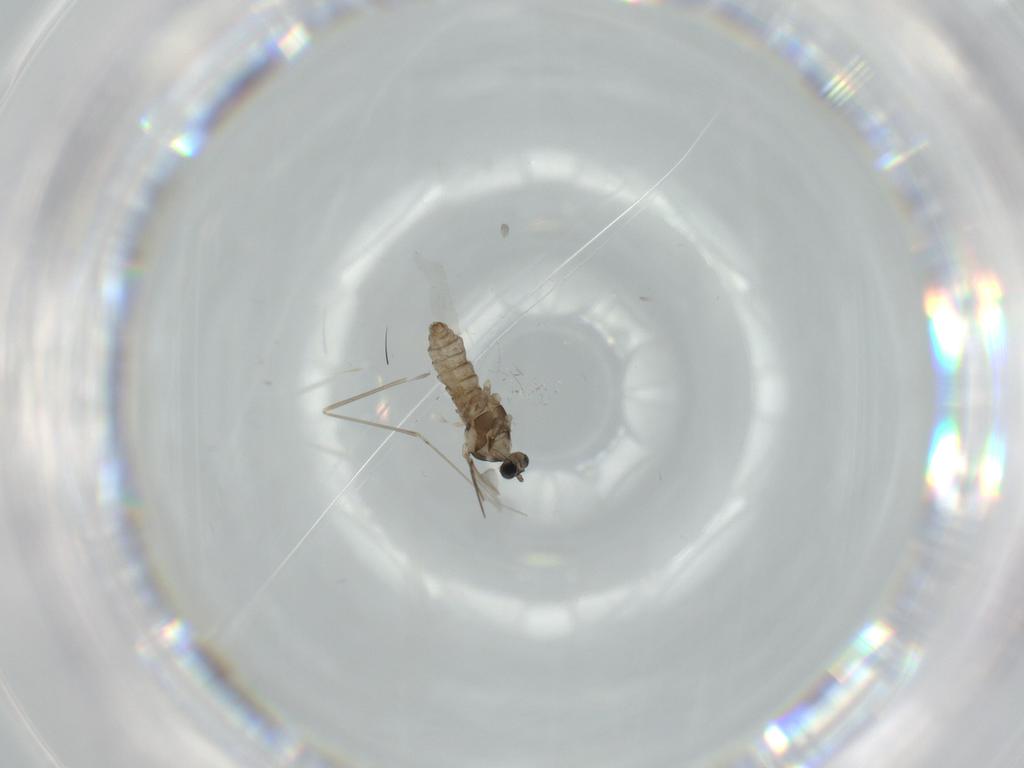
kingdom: Animalia
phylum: Arthropoda
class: Insecta
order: Diptera
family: Cecidomyiidae
